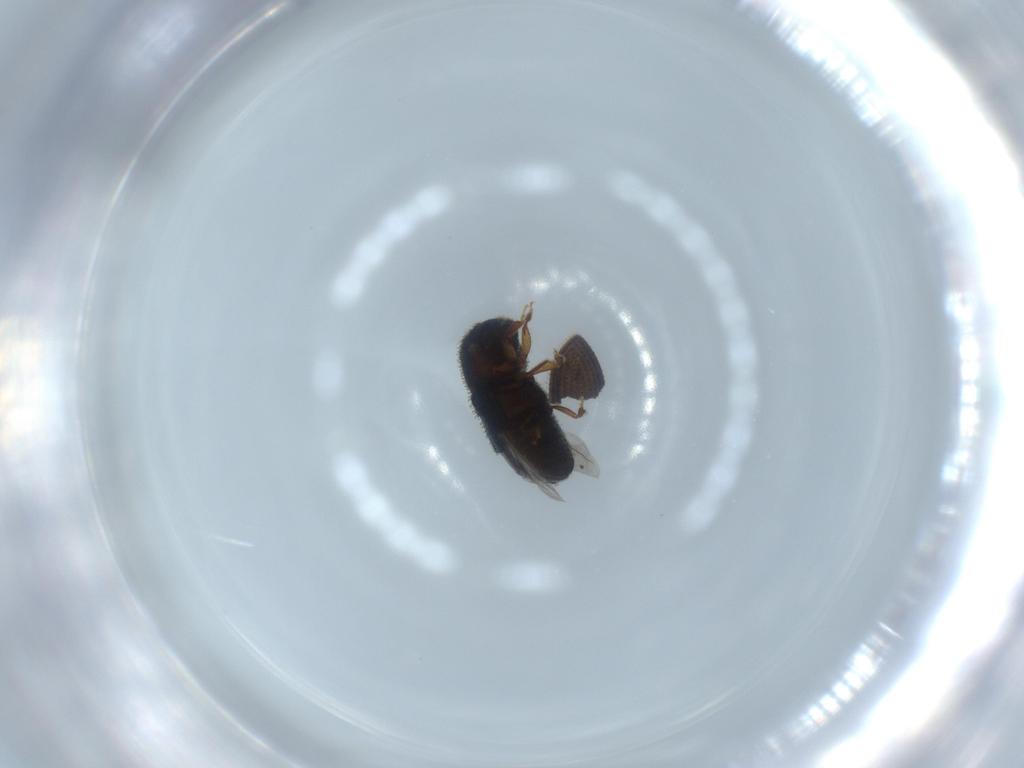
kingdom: Animalia
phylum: Arthropoda
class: Insecta
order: Coleoptera
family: Curculionidae
